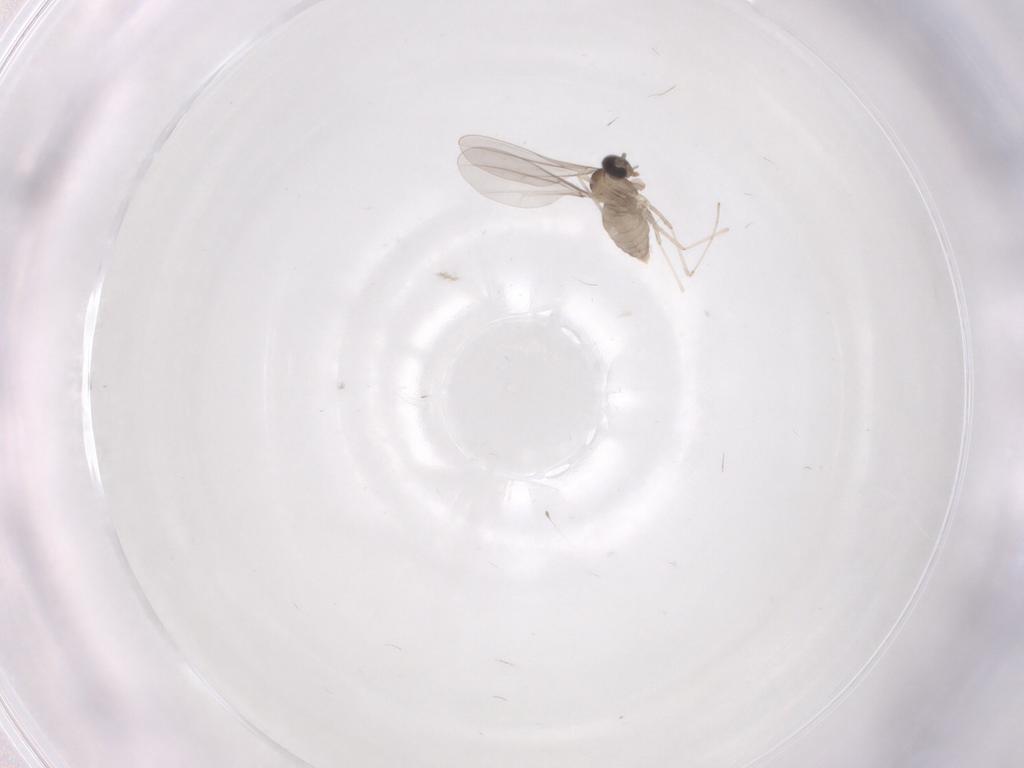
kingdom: Animalia
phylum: Arthropoda
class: Insecta
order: Diptera
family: Cecidomyiidae
